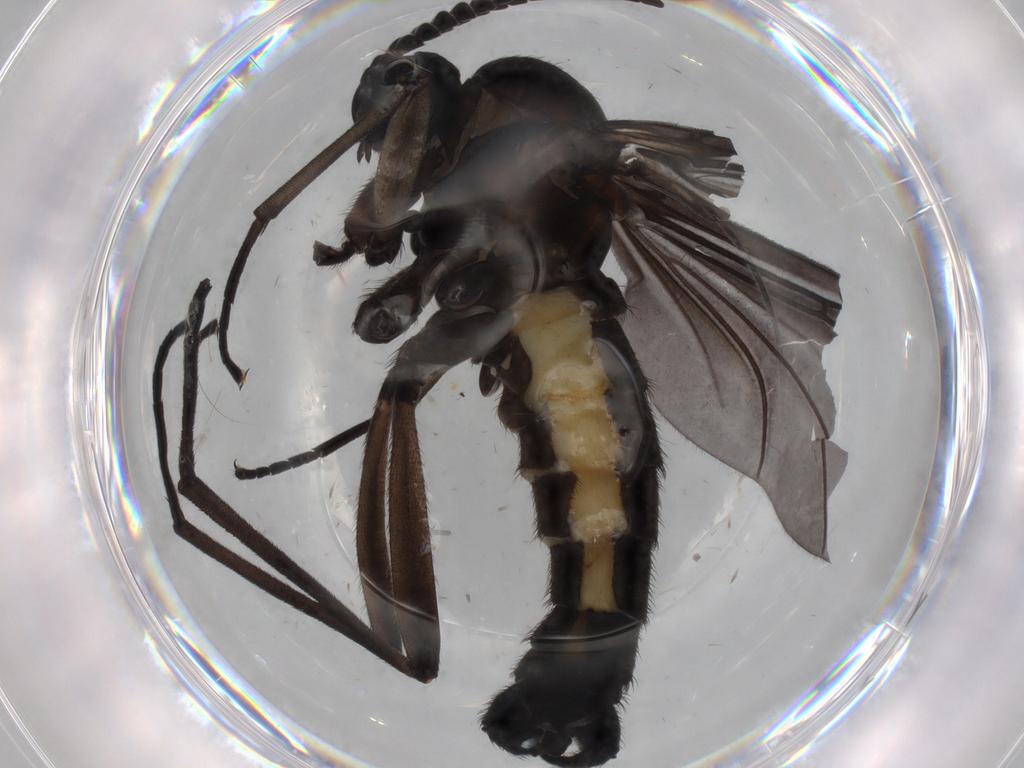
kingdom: Animalia
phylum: Arthropoda
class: Insecta
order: Diptera
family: Sciaridae
